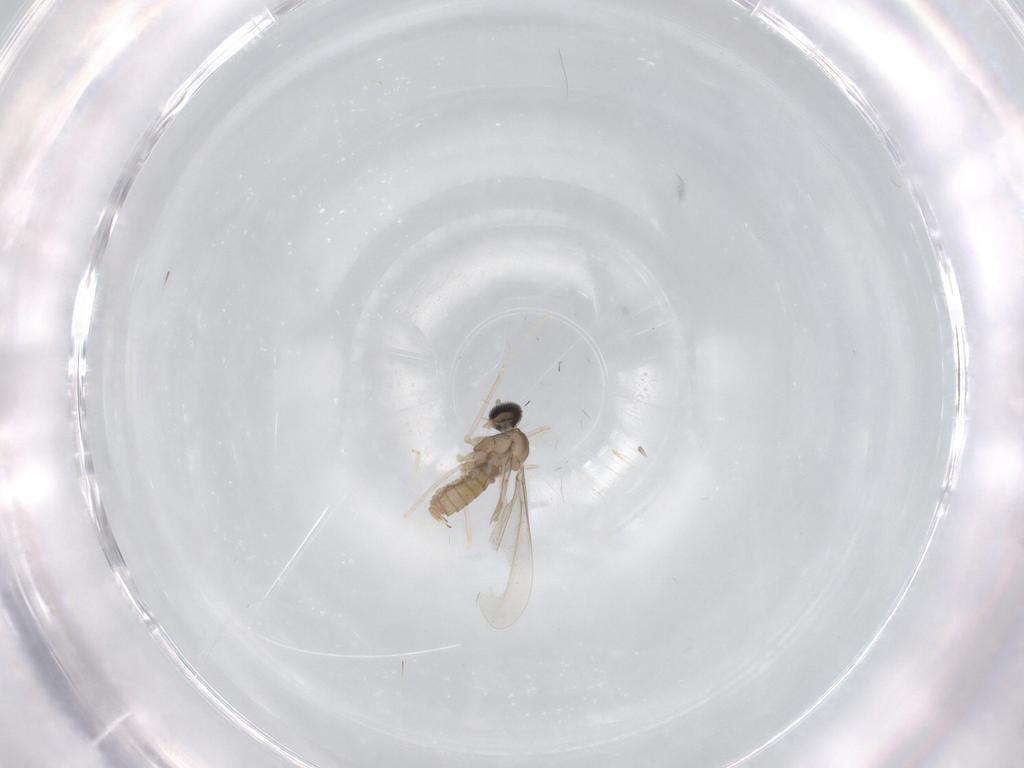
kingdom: Animalia
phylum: Arthropoda
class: Insecta
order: Diptera
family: Cecidomyiidae
